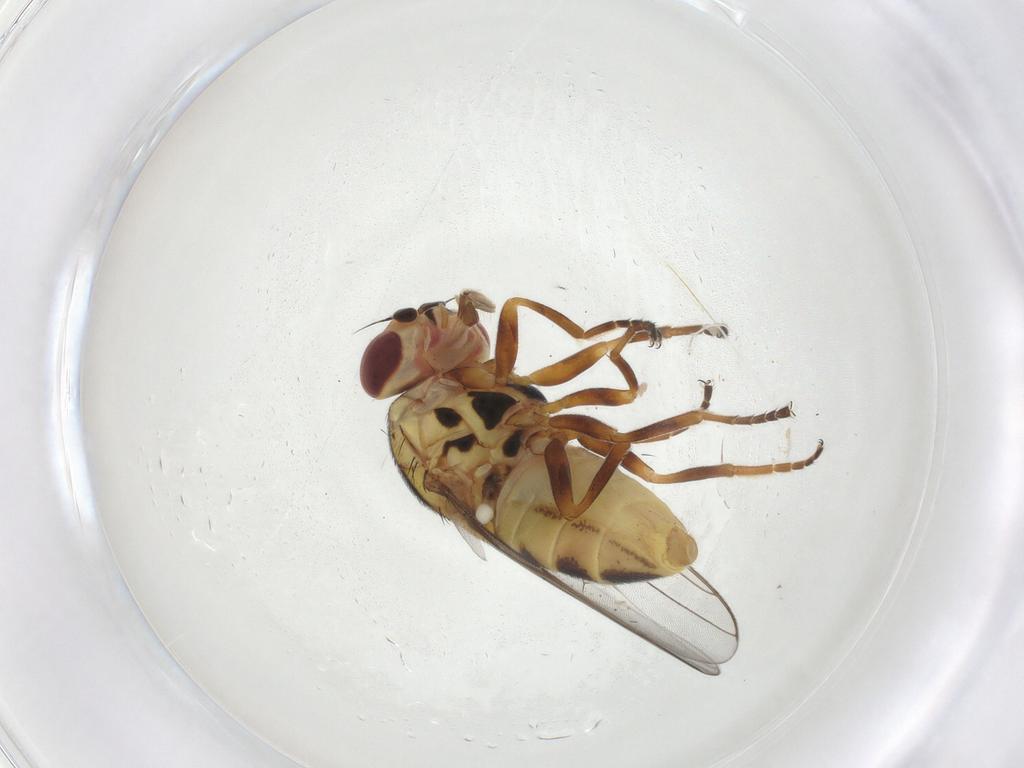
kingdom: Animalia
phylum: Arthropoda
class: Insecta
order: Diptera
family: Chloropidae
